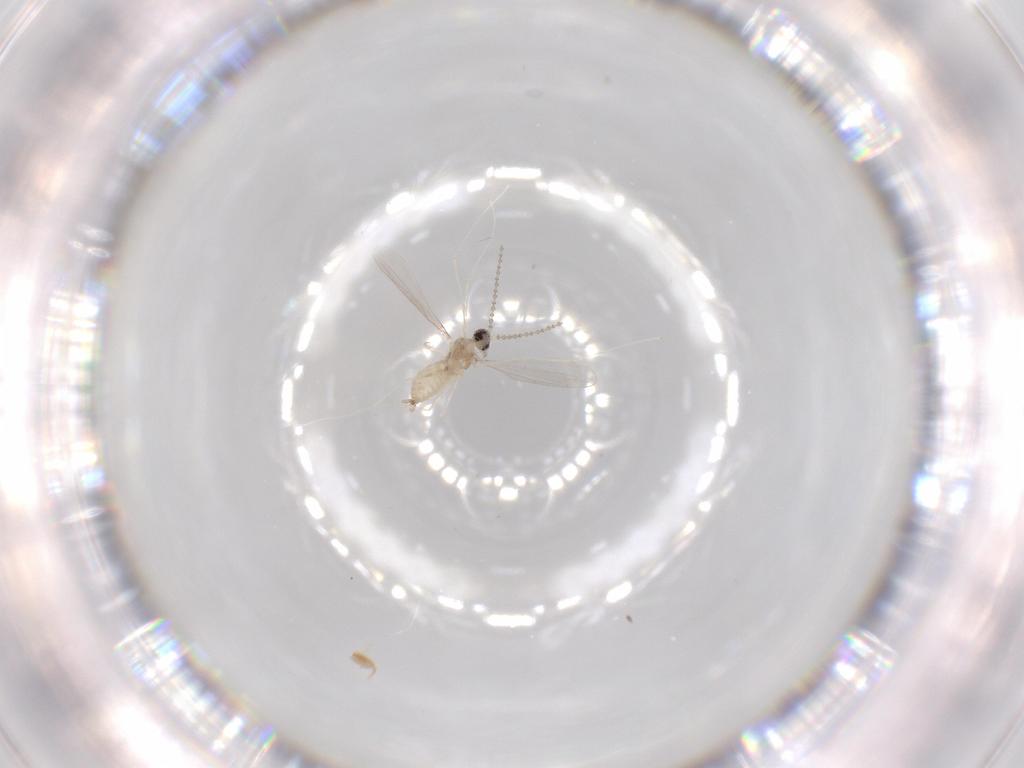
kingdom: Animalia
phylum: Arthropoda
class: Insecta
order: Diptera
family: Cecidomyiidae
